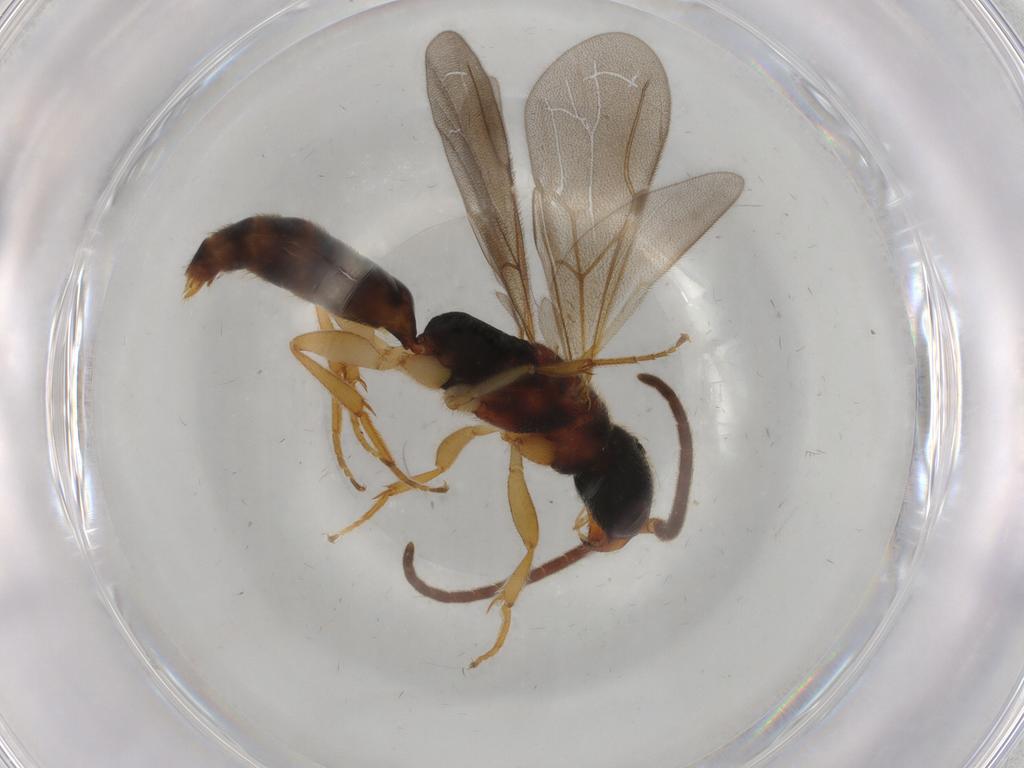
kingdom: Animalia
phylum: Arthropoda
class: Insecta
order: Hymenoptera
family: Bethylidae
